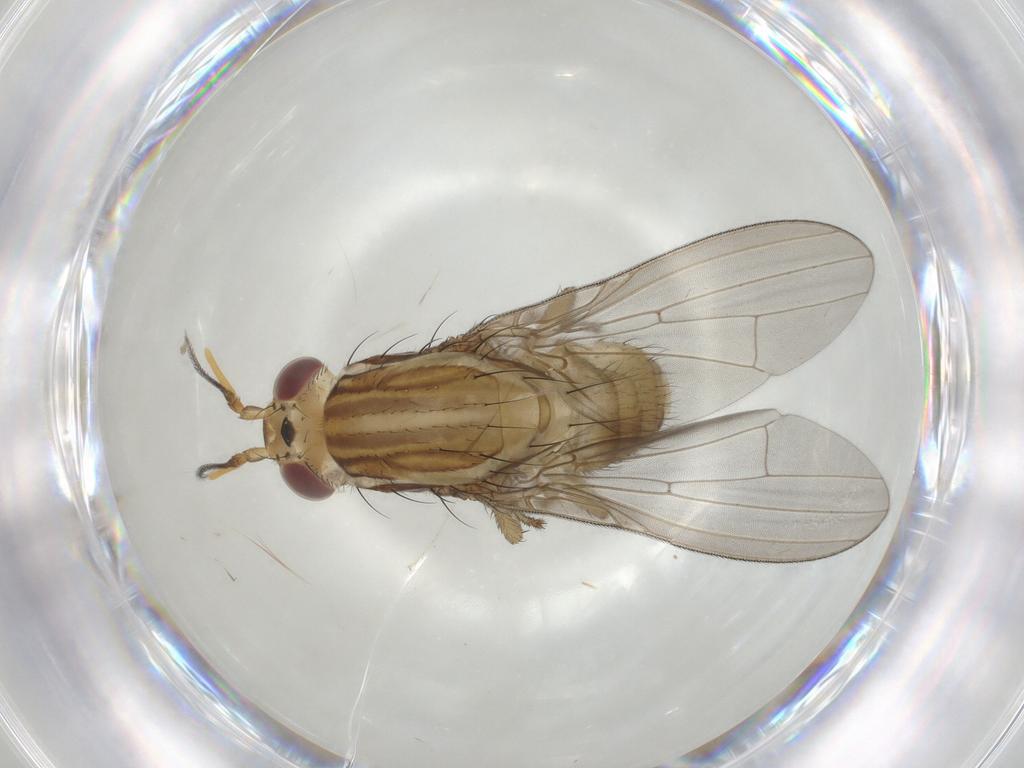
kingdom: Animalia
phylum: Arthropoda
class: Insecta
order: Diptera
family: Lauxaniidae
